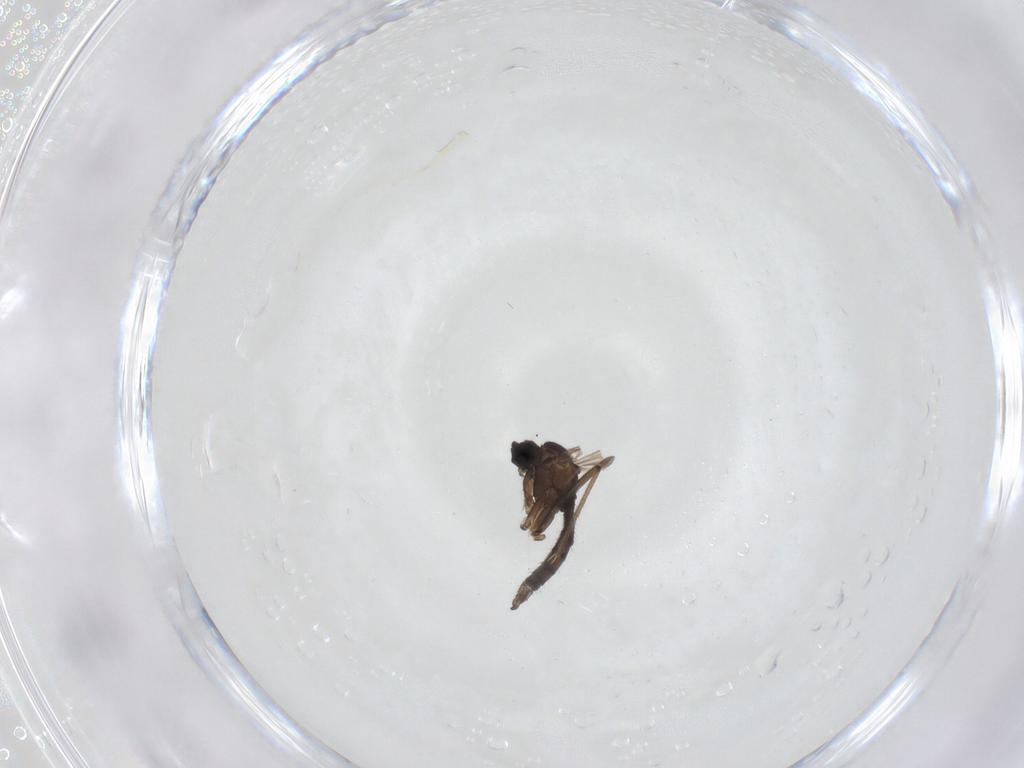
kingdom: Animalia
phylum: Arthropoda
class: Insecta
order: Diptera
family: Sciaridae
